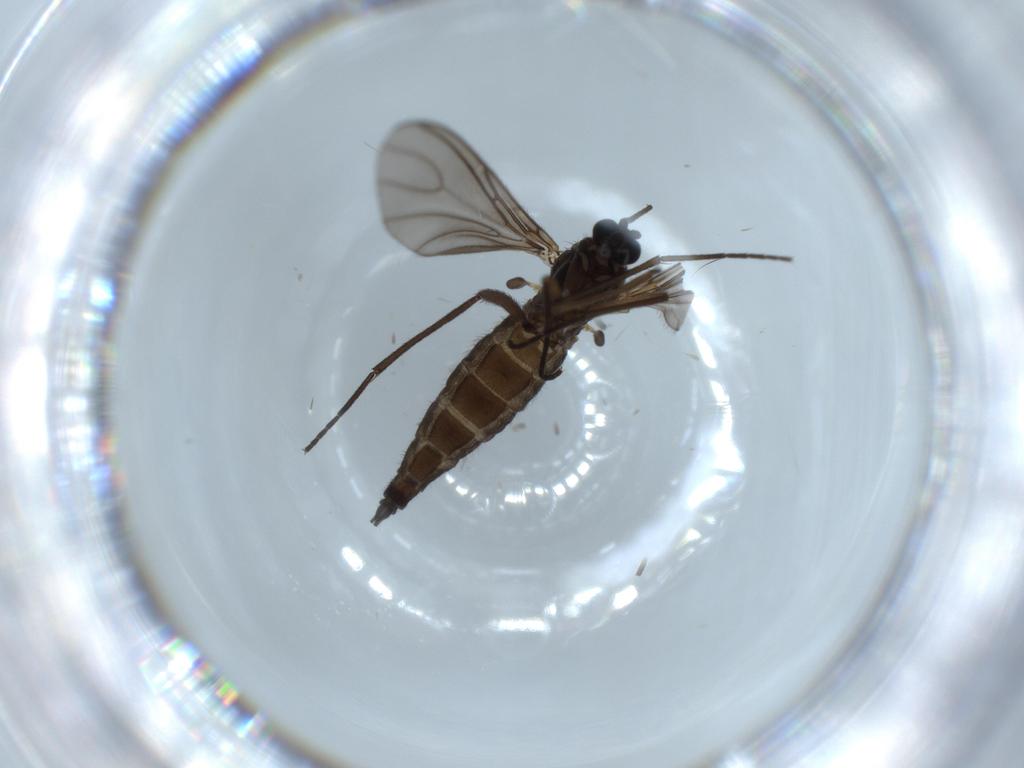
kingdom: Animalia
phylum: Arthropoda
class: Insecta
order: Diptera
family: Sciaridae
